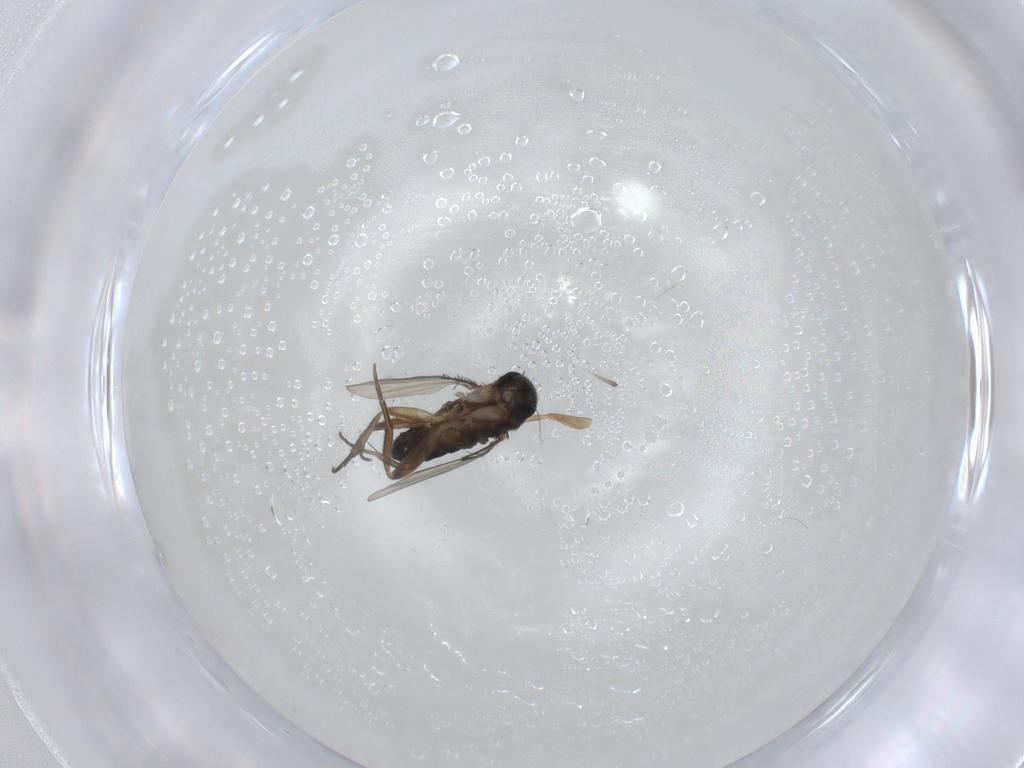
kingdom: Animalia
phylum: Arthropoda
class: Insecta
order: Diptera
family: Phoridae
